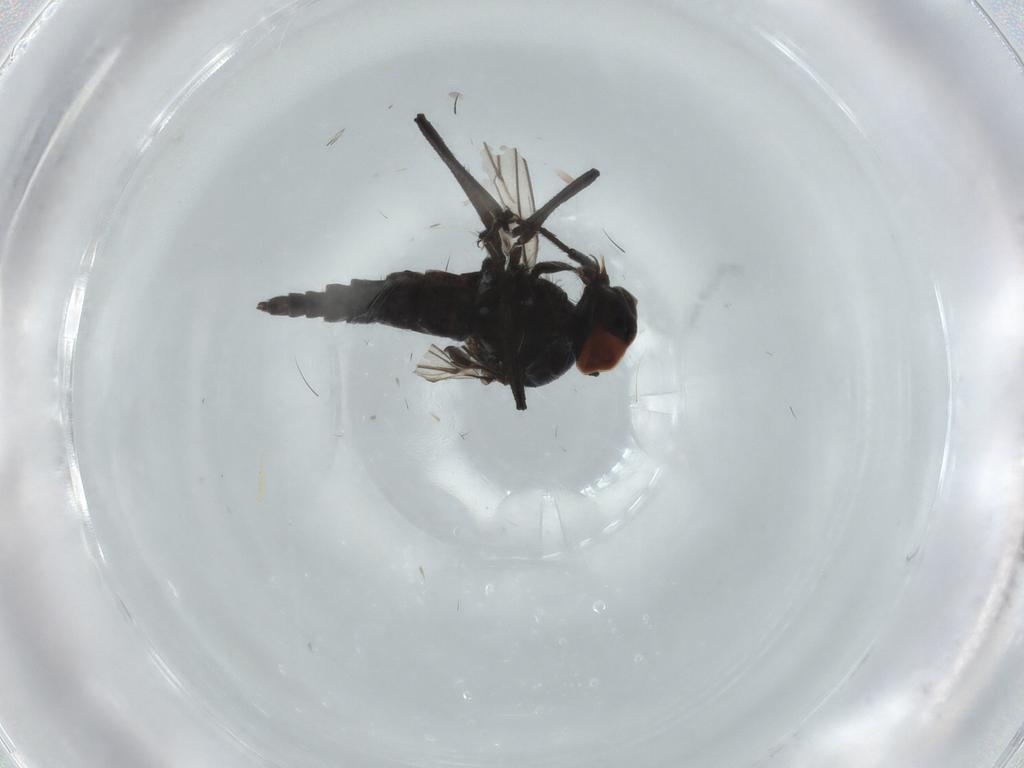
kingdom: Animalia
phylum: Arthropoda
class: Insecta
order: Diptera
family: Hybotidae
